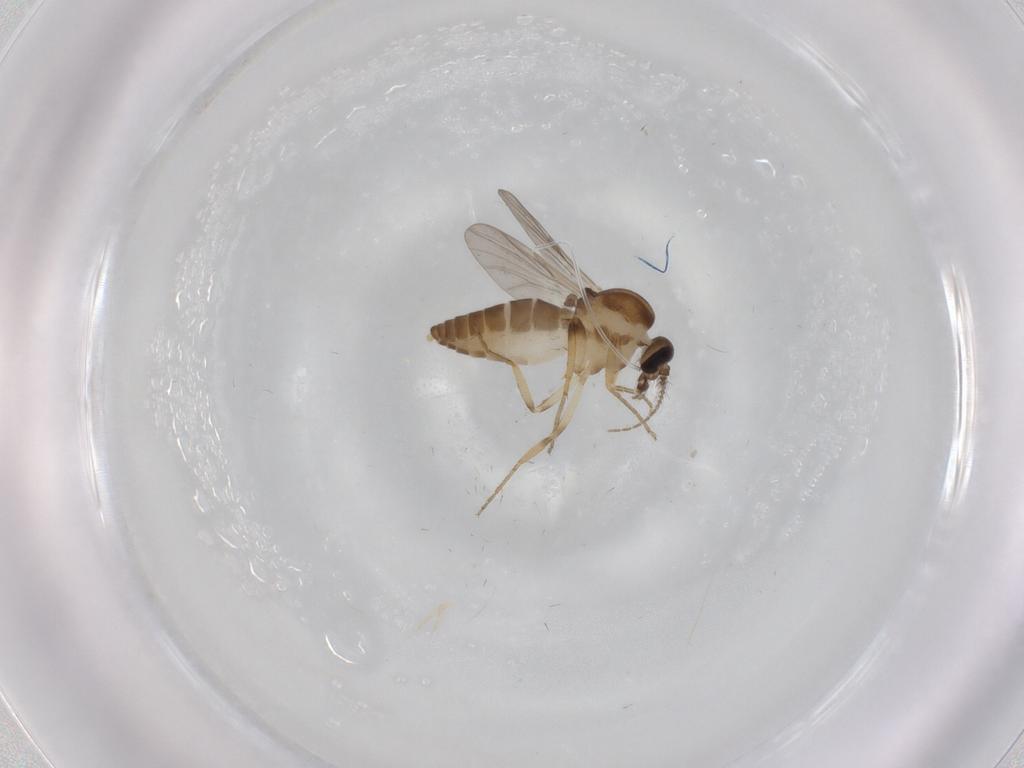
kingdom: Animalia
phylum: Arthropoda
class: Insecta
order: Diptera
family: Ceratopogonidae
